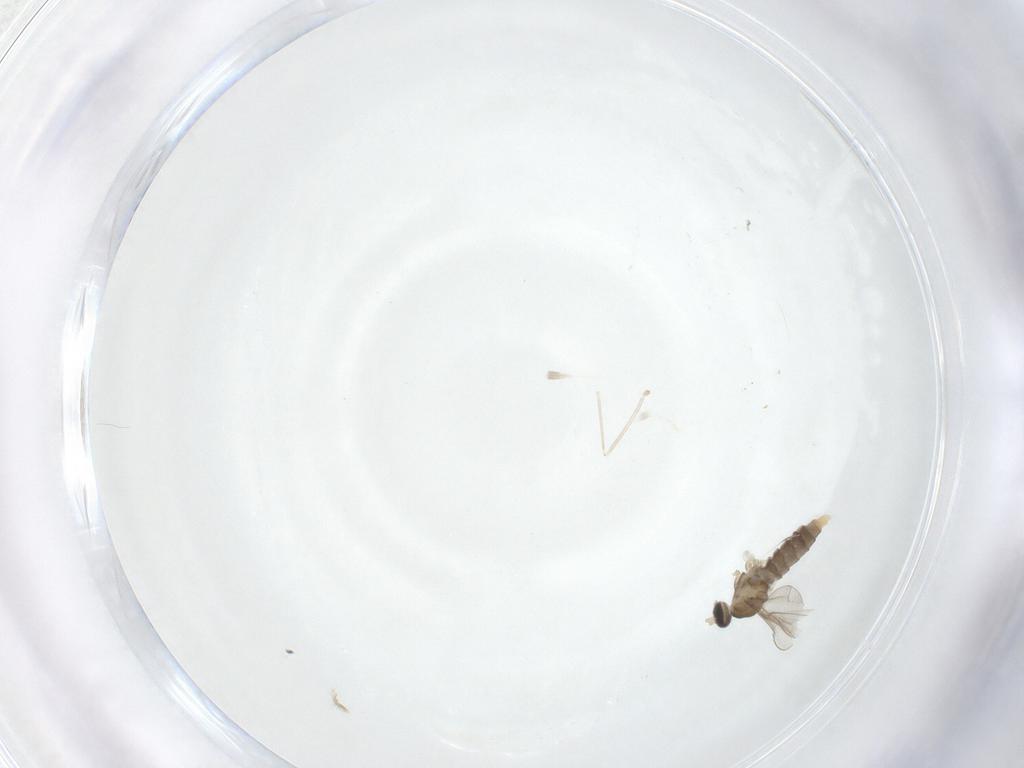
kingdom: Animalia
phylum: Arthropoda
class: Insecta
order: Diptera
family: Cecidomyiidae
